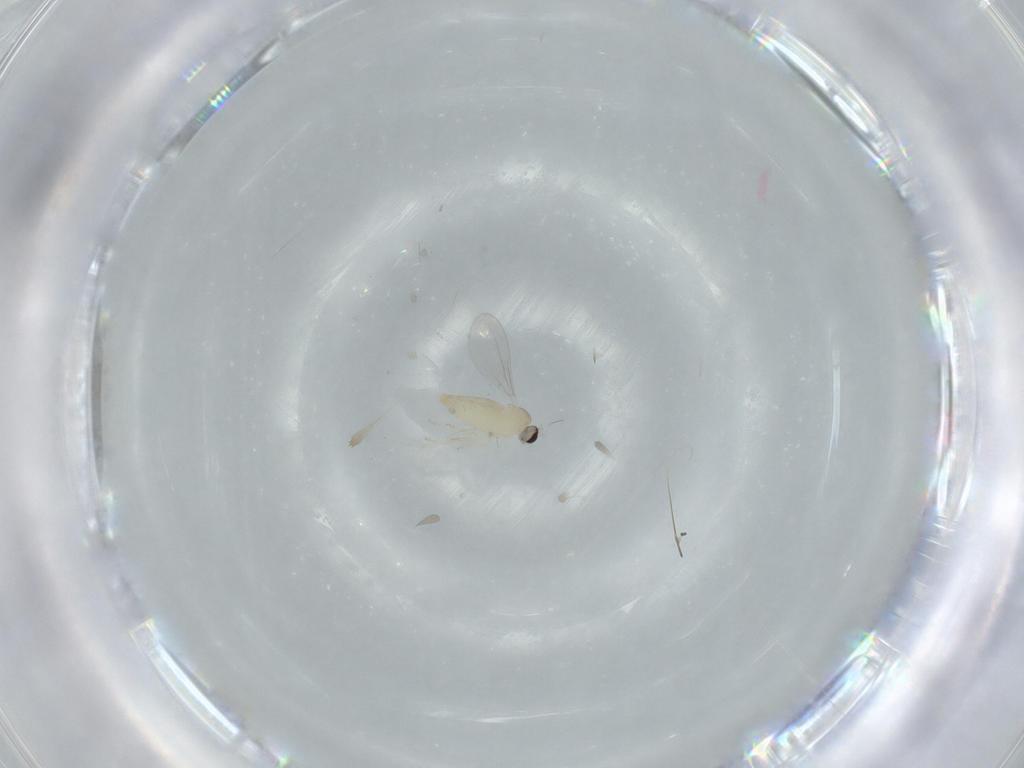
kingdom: Animalia
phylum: Arthropoda
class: Insecta
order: Diptera
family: Cecidomyiidae
